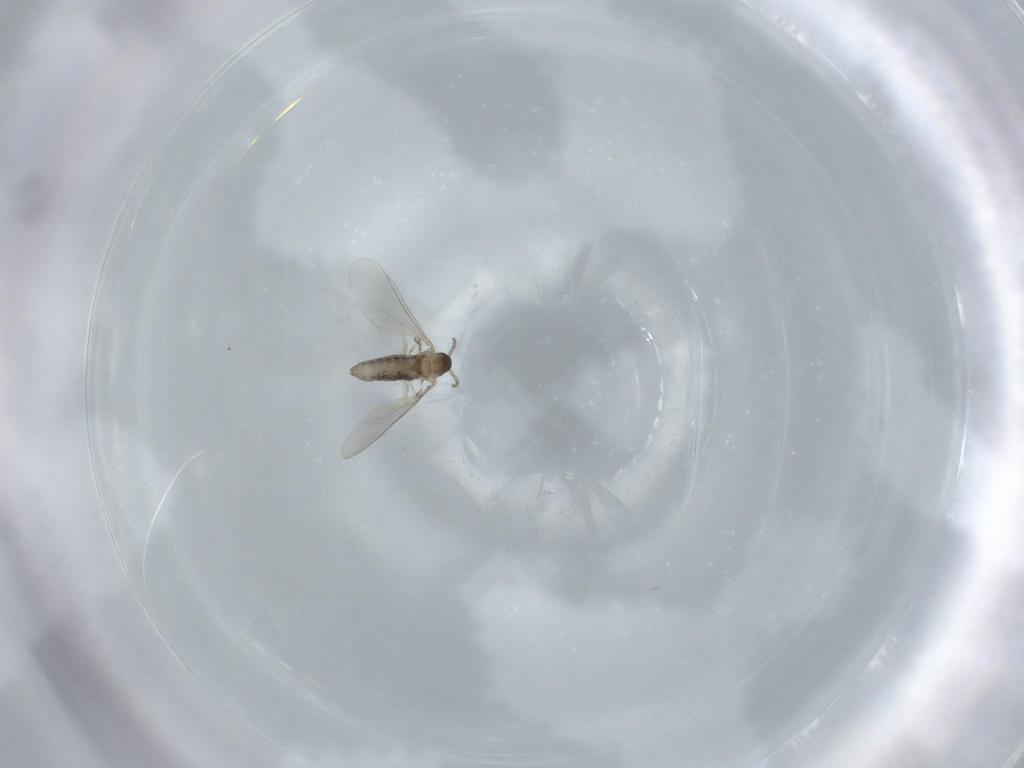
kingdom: Animalia
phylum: Arthropoda
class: Insecta
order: Diptera
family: Cecidomyiidae
